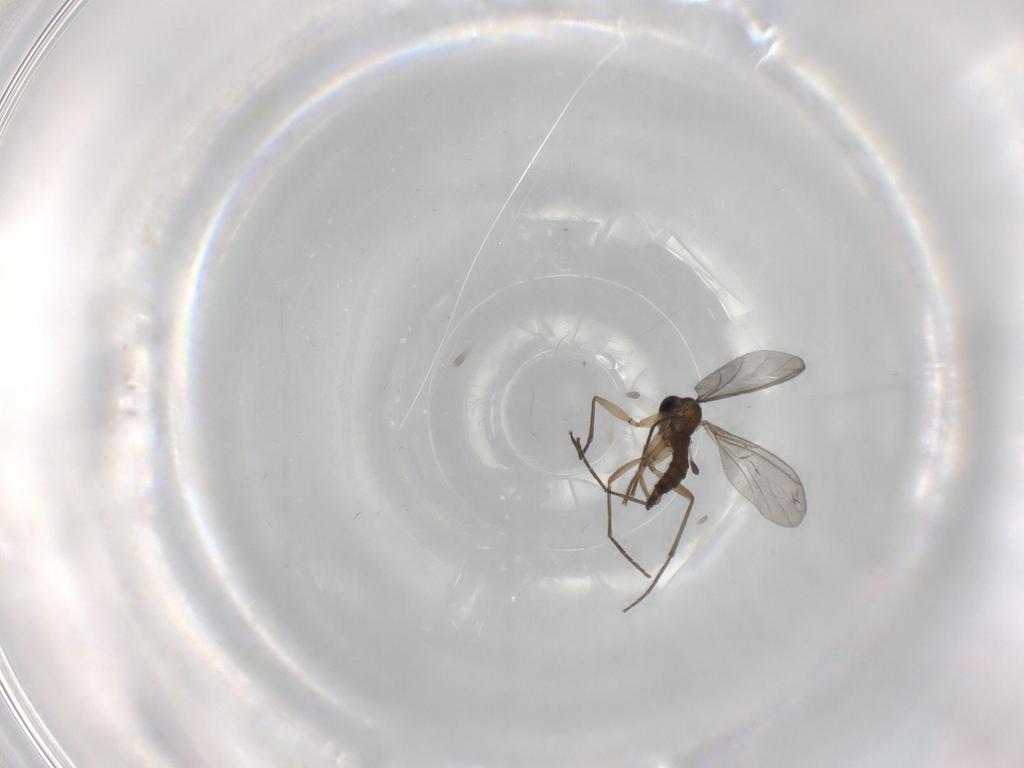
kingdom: Animalia
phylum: Arthropoda
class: Insecta
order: Diptera
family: Sciaridae
